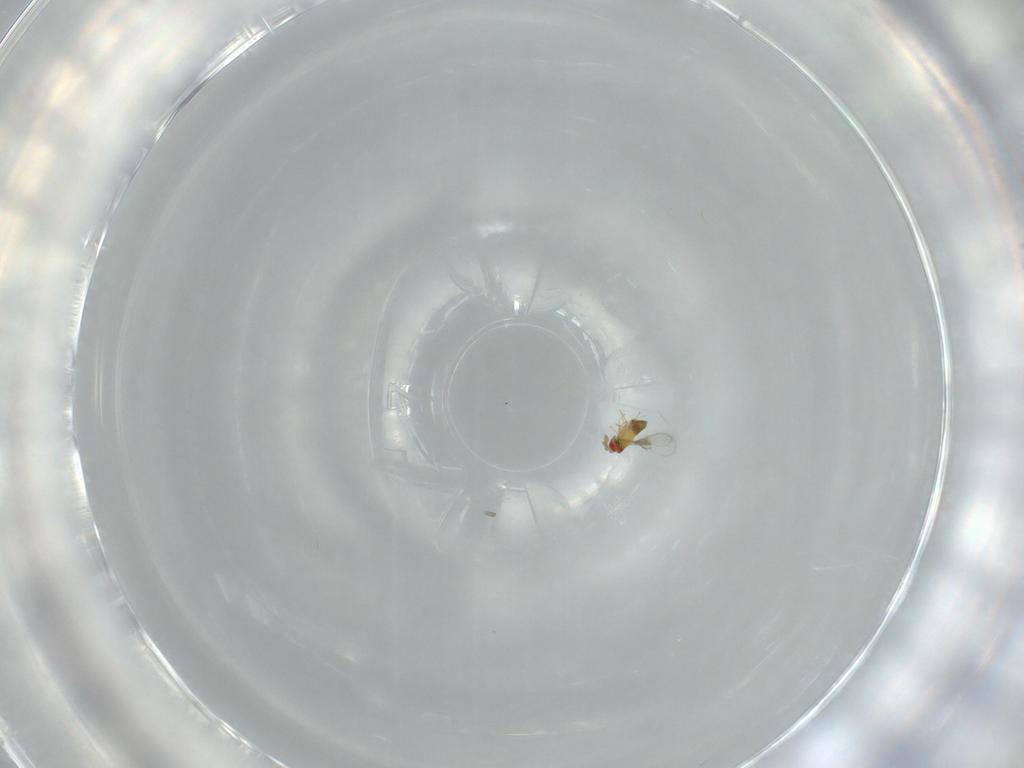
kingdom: Animalia
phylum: Arthropoda
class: Insecta
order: Hymenoptera
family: Trichogrammatidae
